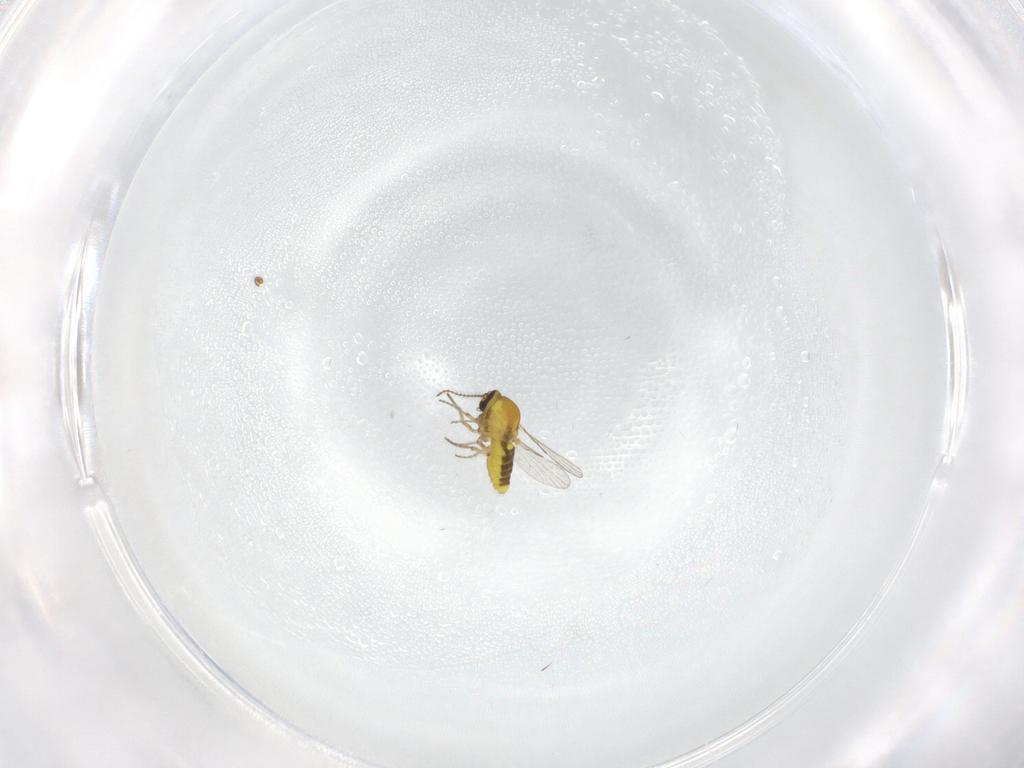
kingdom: Animalia
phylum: Arthropoda
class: Insecta
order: Diptera
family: Ceratopogonidae
